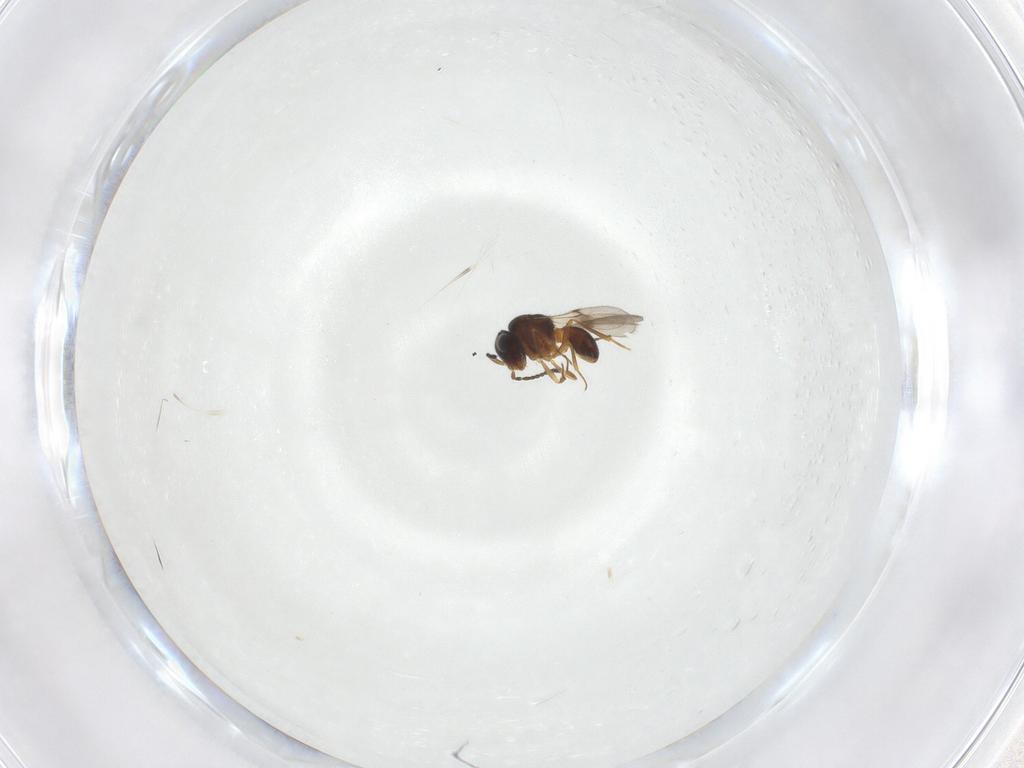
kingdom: Animalia
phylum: Arthropoda
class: Arachnida
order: Araneae
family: Pholcidae
